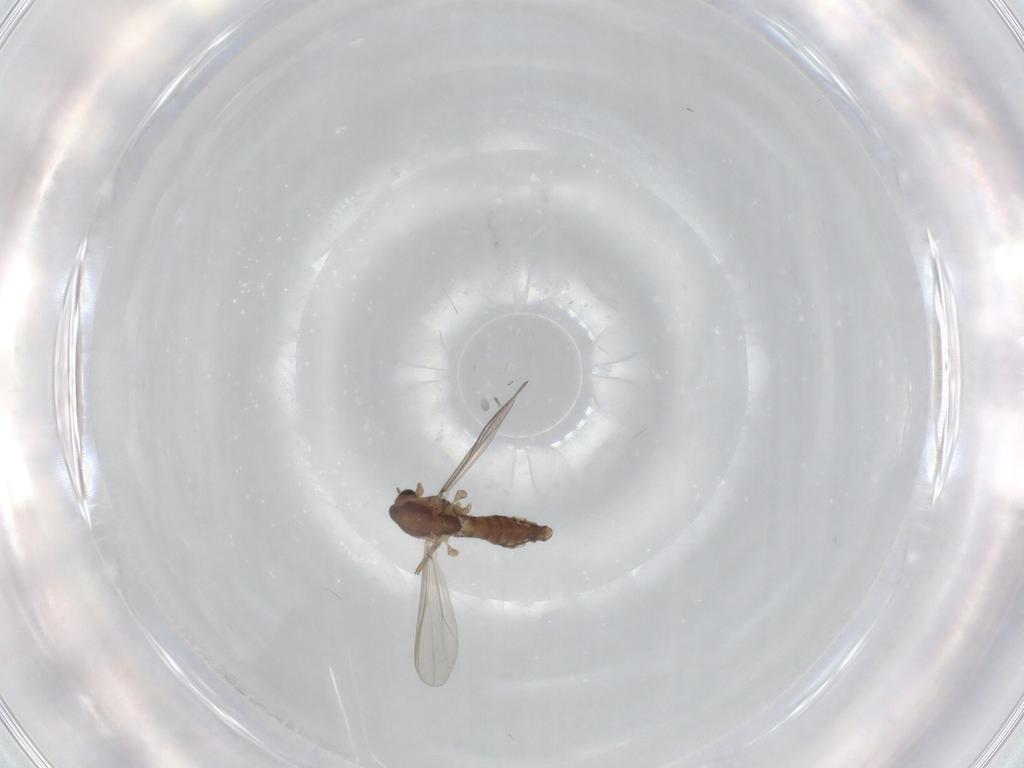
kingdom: Animalia
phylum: Arthropoda
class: Insecta
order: Diptera
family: Chironomidae
